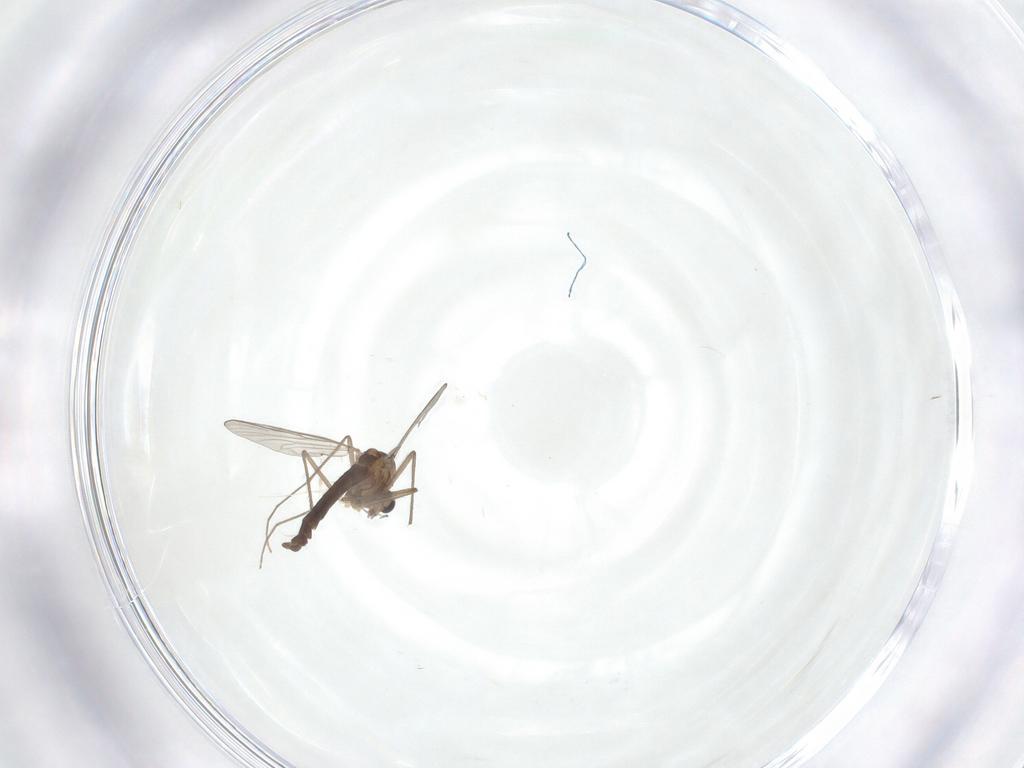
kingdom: Animalia
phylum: Arthropoda
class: Insecta
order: Diptera
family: Chironomidae
